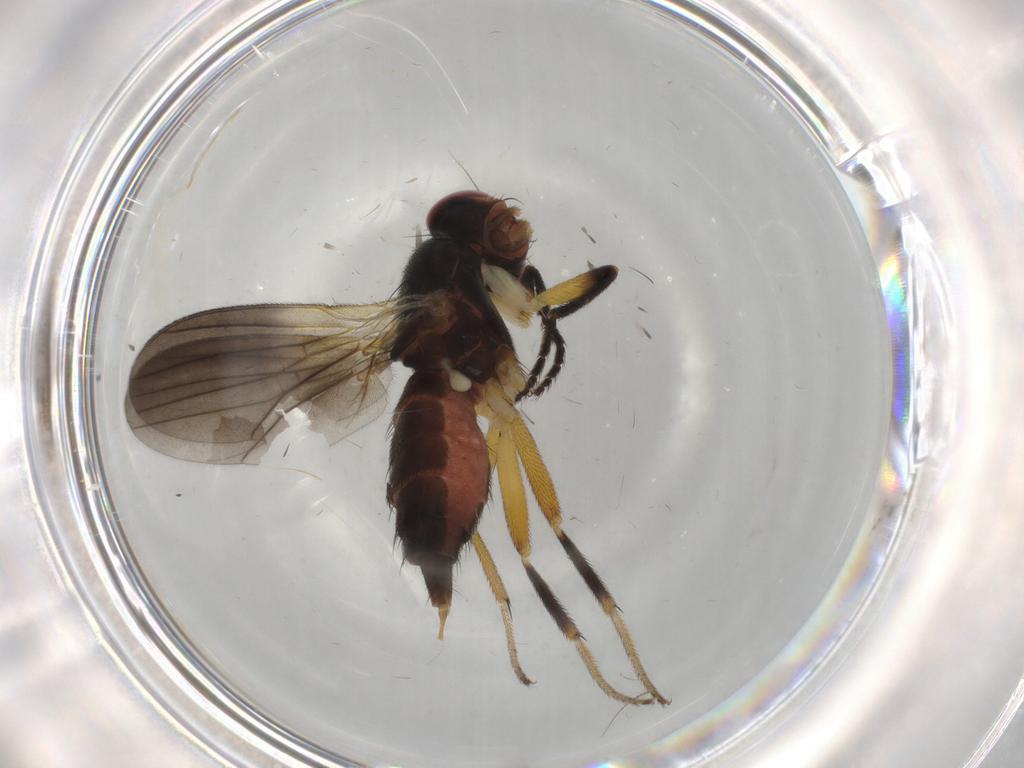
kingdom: Animalia
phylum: Arthropoda
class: Insecta
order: Diptera
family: Clusiidae
